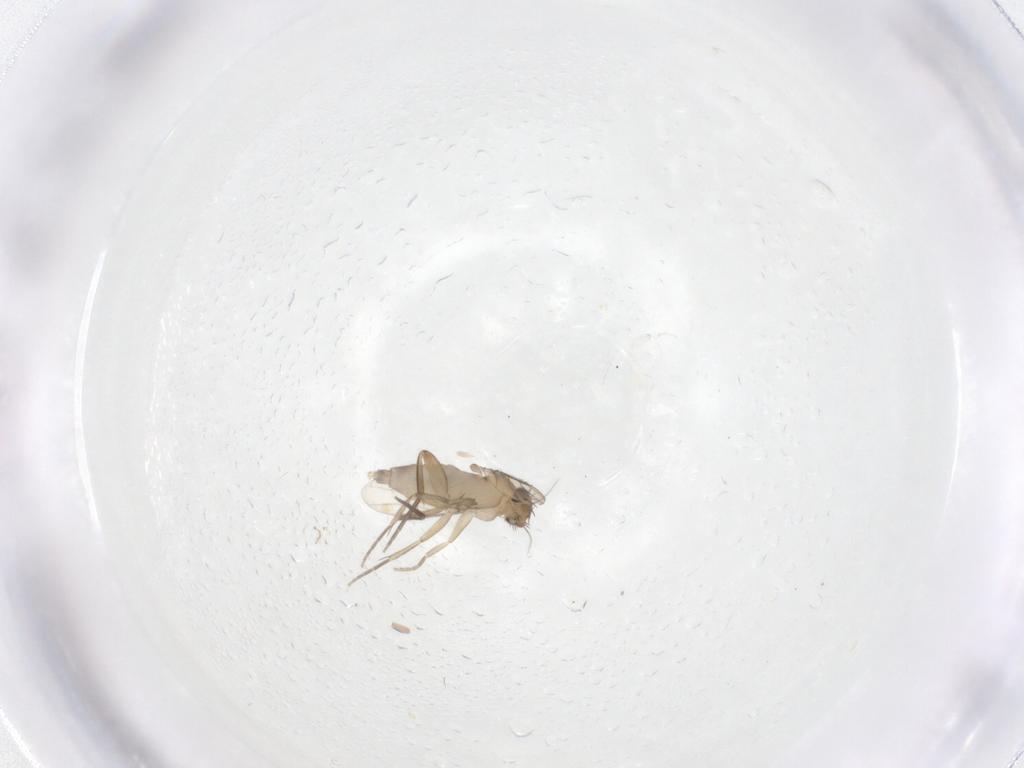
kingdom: Animalia
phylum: Arthropoda
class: Insecta
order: Diptera
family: Phoridae
